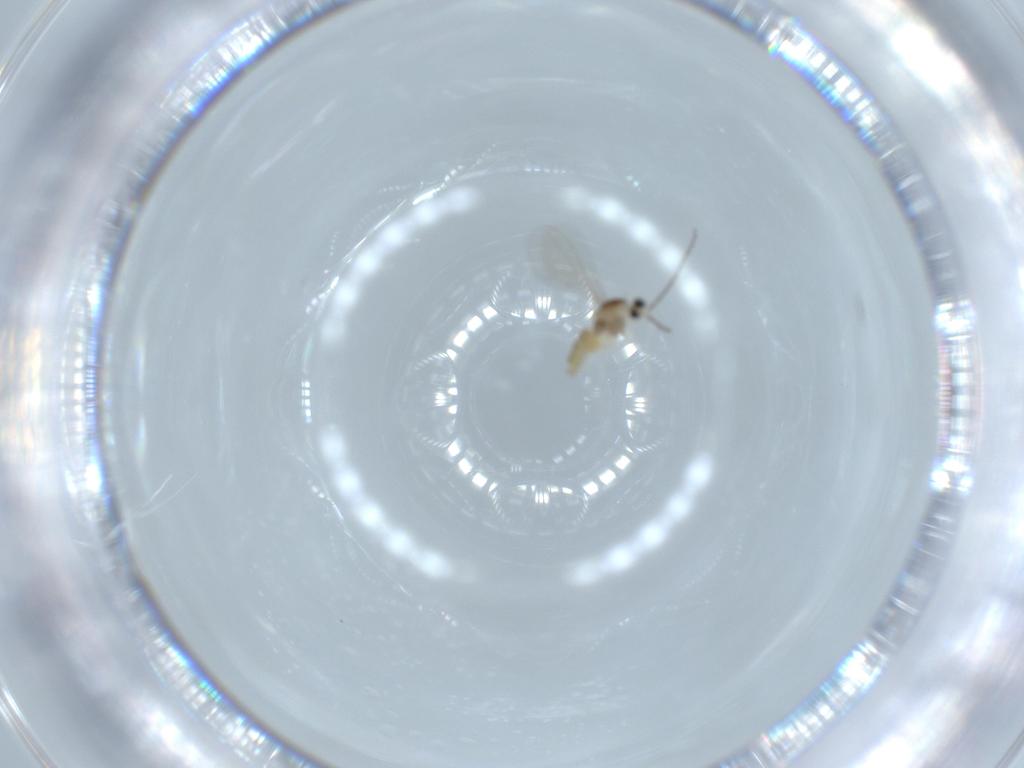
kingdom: Animalia
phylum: Arthropoda
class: Insecta
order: Diptera
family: Cecidomyiidae
